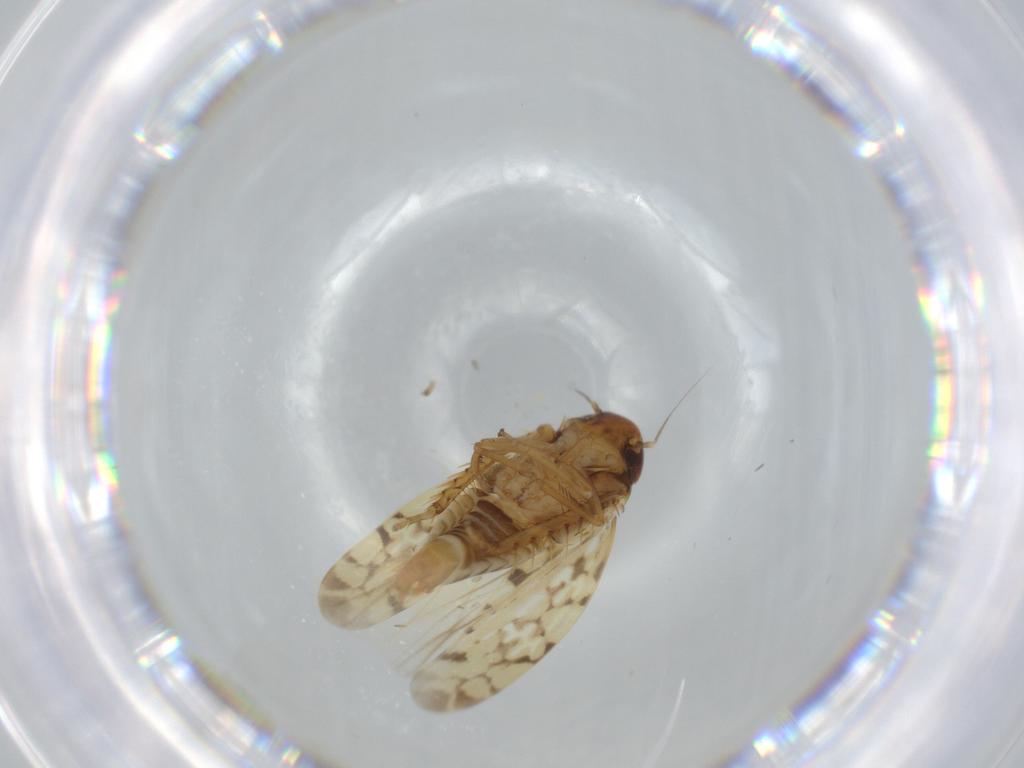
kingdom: Animalia
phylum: Arthropoda
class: Insecta
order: Hemiptera
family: Cicadellidae
